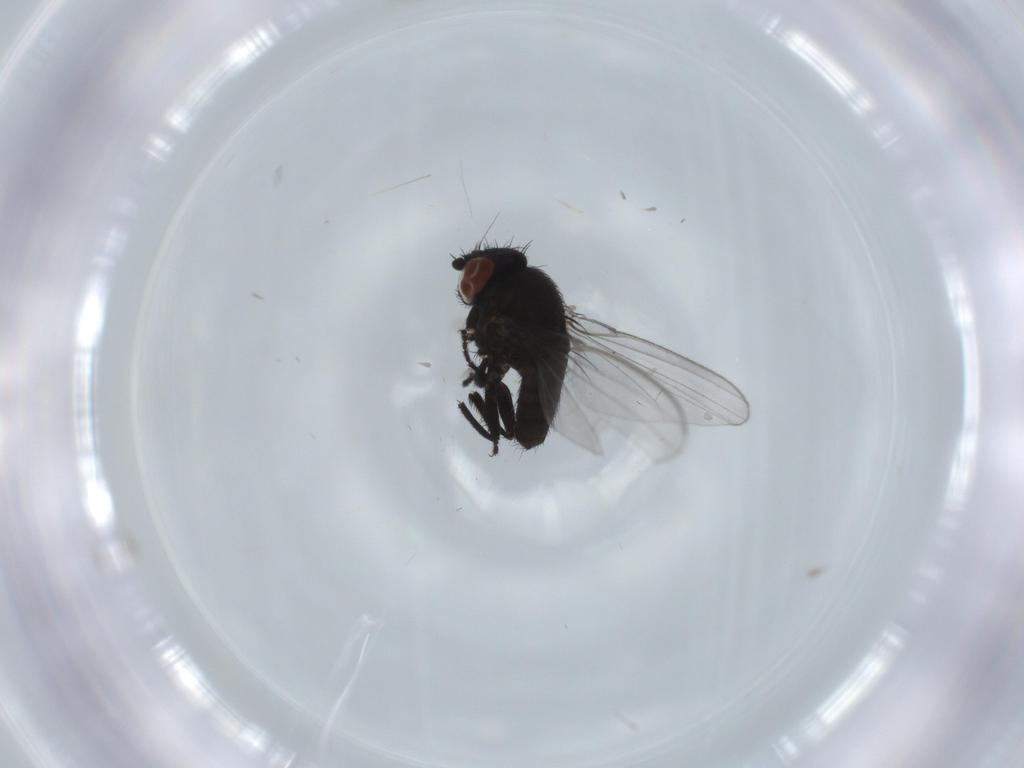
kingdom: Animalia
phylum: Arthropoda
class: Insecta
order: Diptera
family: Milichiidae
